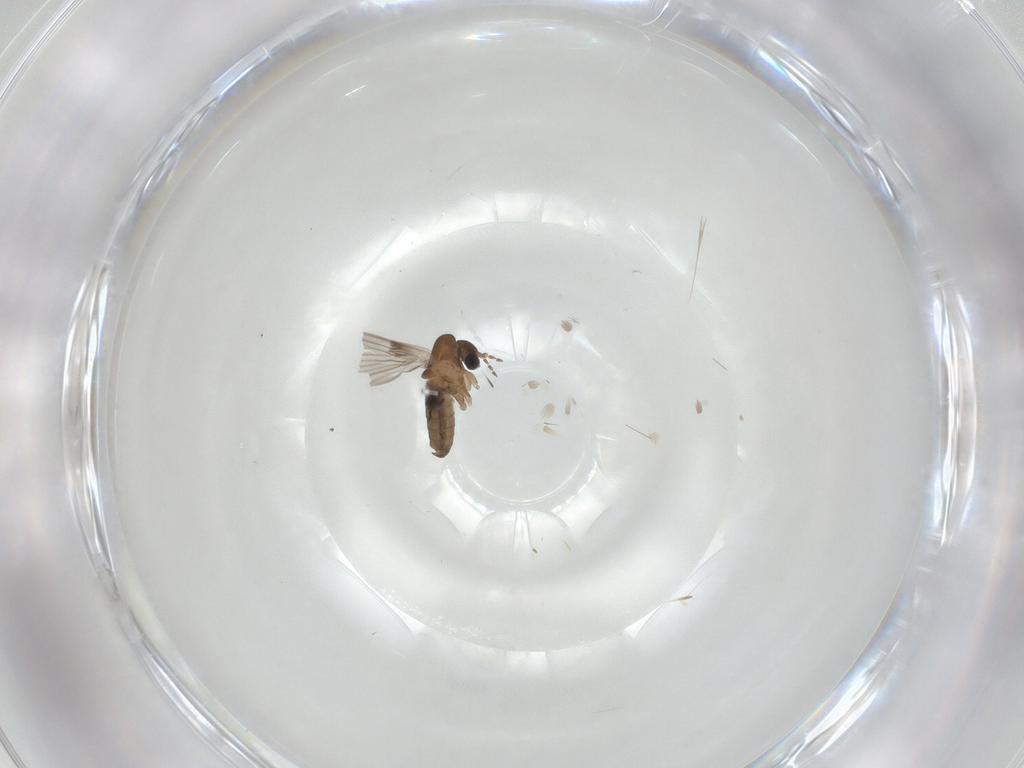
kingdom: Animalia
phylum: Arthropoda
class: Insecta
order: Diptera
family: Psychodidae
